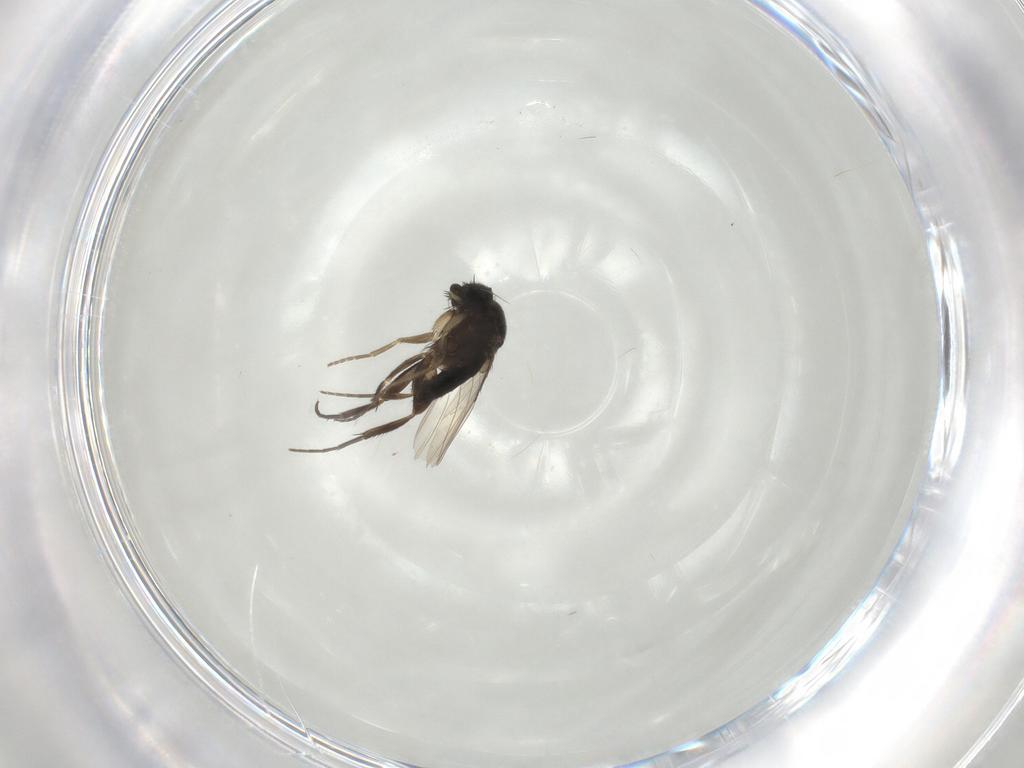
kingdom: Animalia
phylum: Arthropoda
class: Insecta
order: Diptera
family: Phoridae
